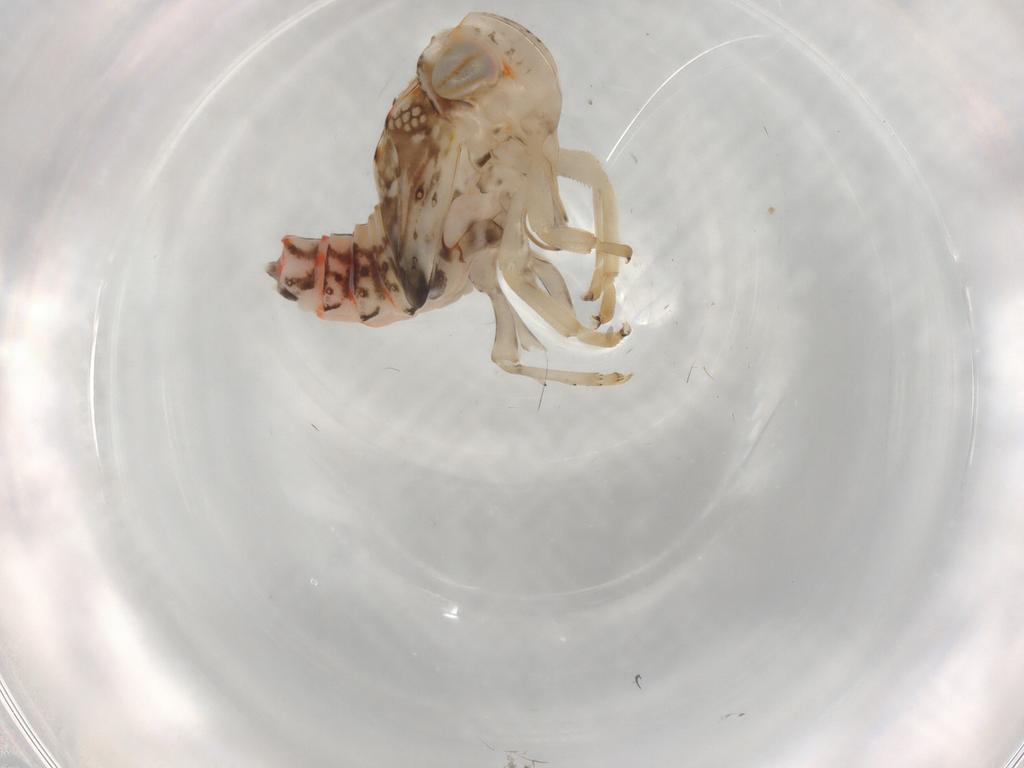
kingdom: Animalia
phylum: Arthropoda
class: Insecta
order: Hemiptera
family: Nogodinidae
